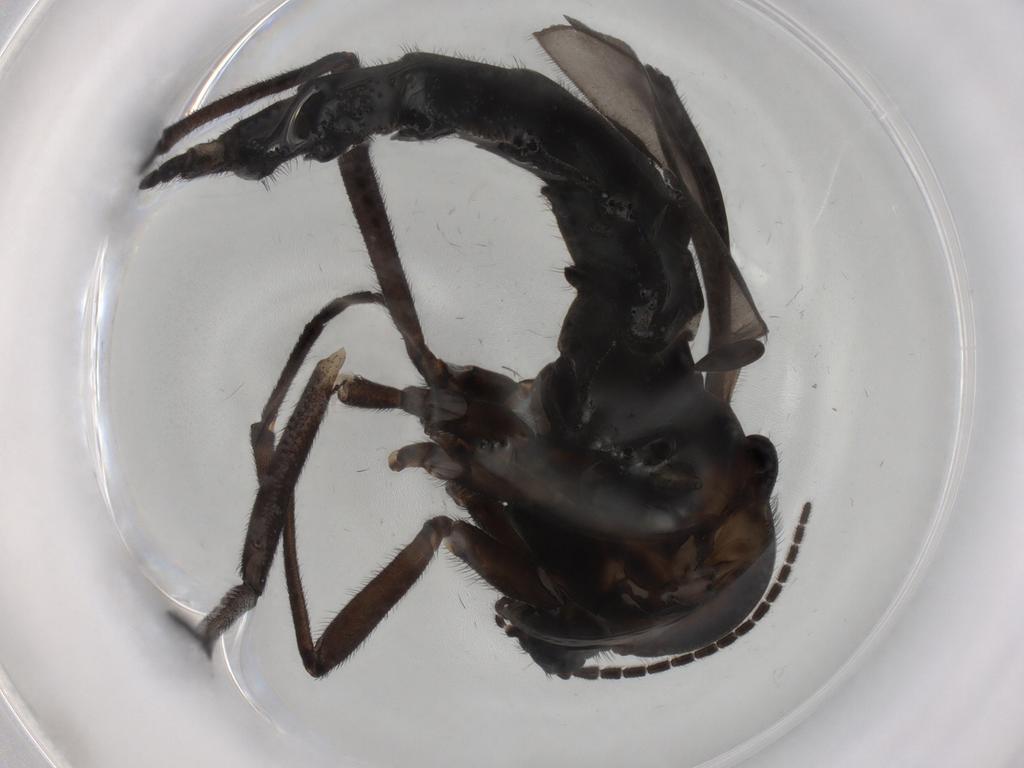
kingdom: Animalia
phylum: Arthropoda
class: Insecta
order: Diptera
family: Sciaridae
